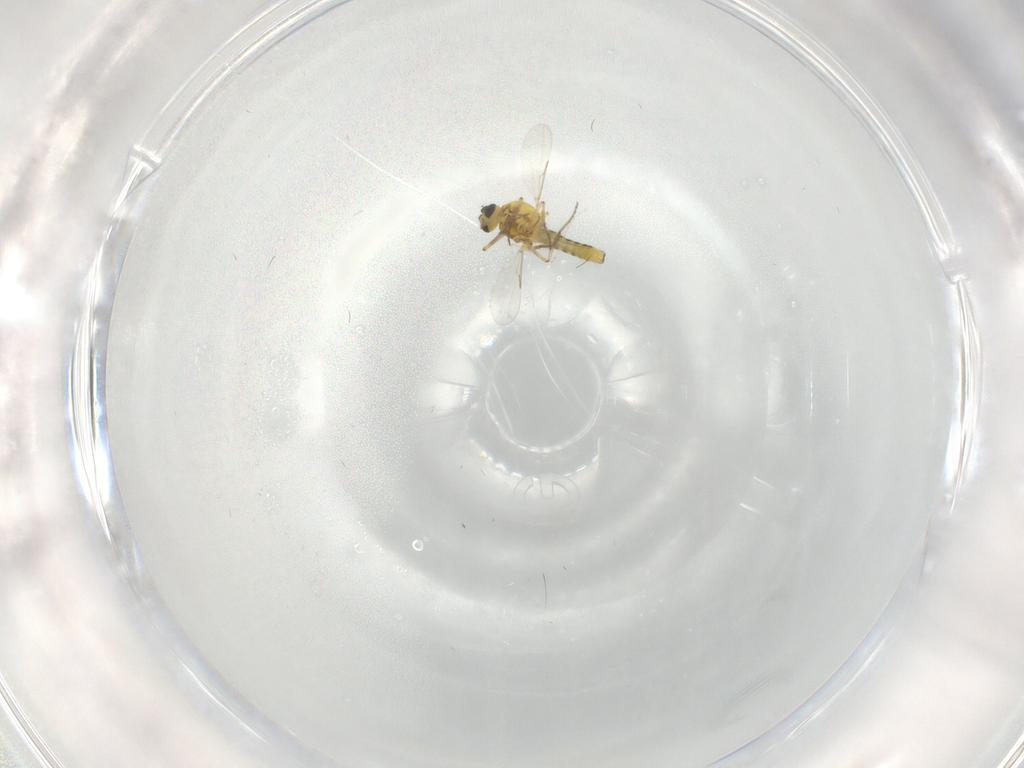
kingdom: Animalia
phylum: Arthropoda
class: Insecta
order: Diptera
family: Ceratopogonidae
